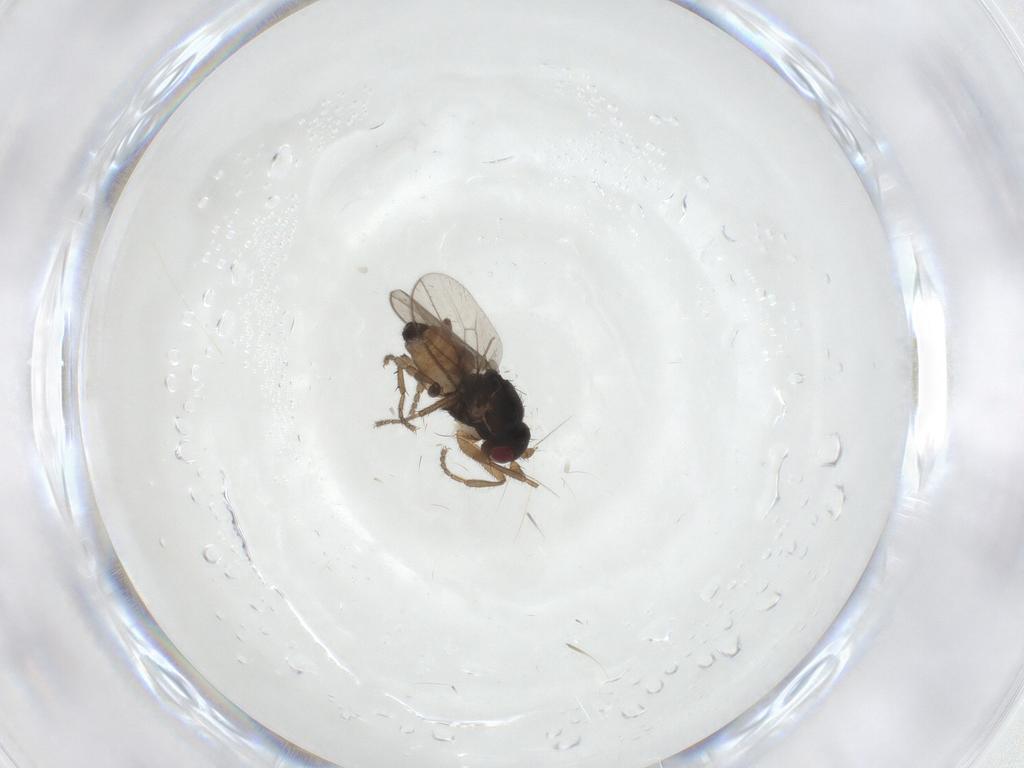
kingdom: Animalia
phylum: Arthropoda
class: Insecta
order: Diptera
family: Sphaeroceridae
